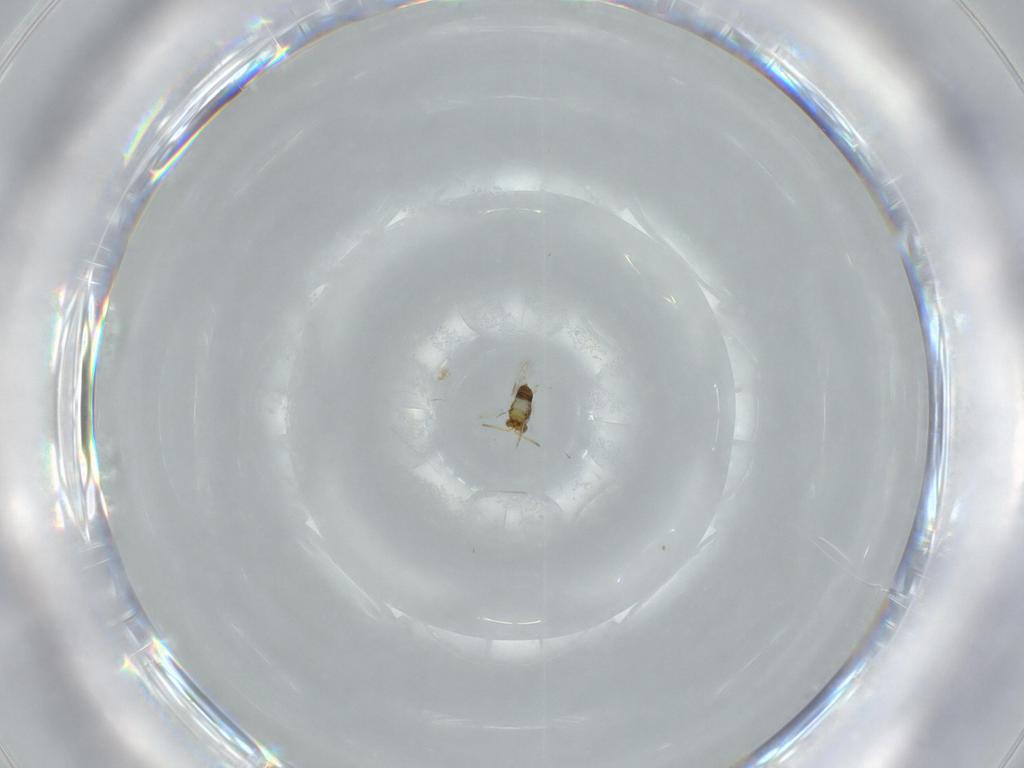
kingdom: Animalia
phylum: Arthropoda
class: Insecta
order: Hymenoptera
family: Aphelinidae
